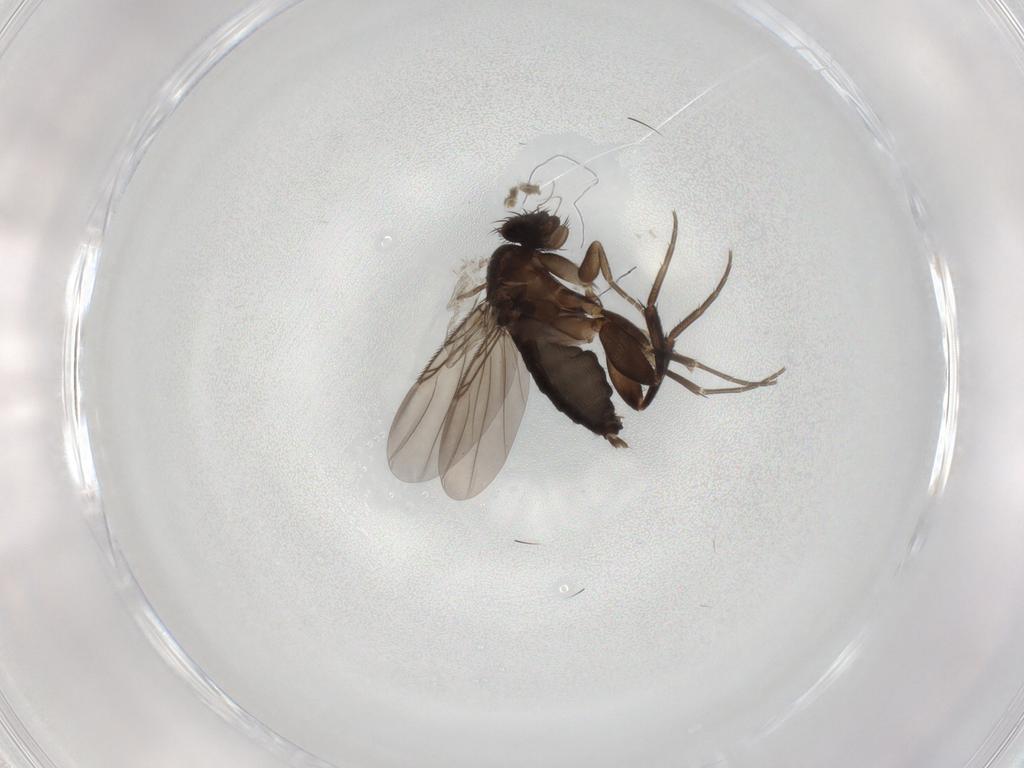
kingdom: Animalia
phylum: Arthropoda
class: Insecta
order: Diptera
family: Phoridae
